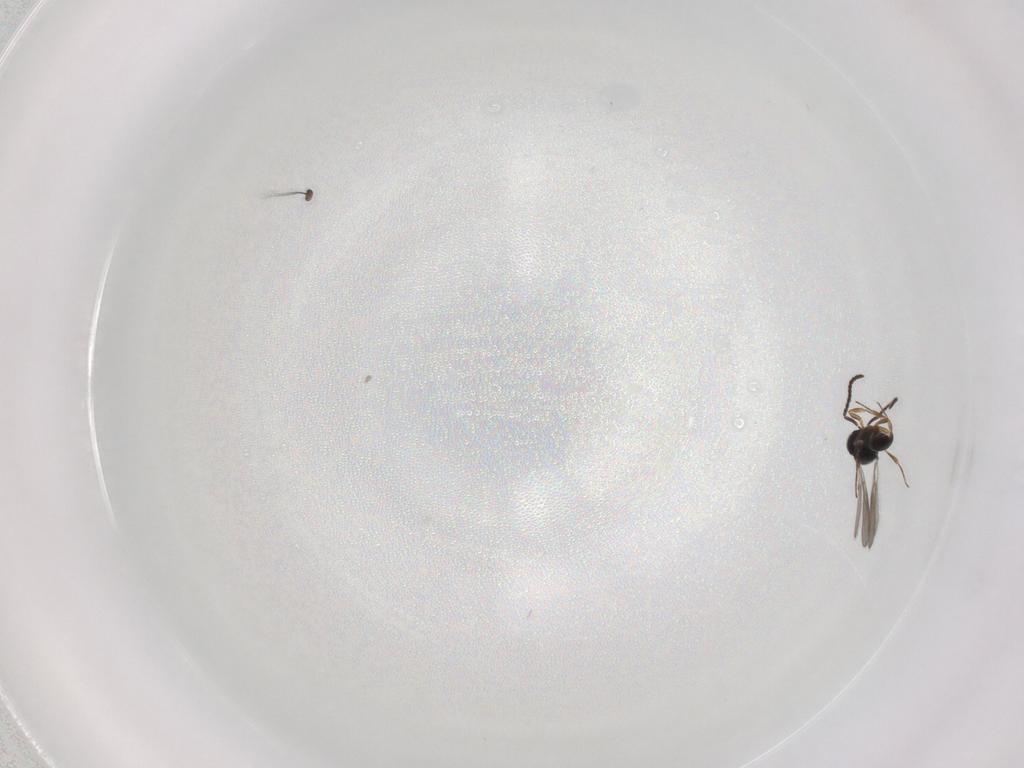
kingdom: Animalia
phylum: Arthropoda
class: Insecta
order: Hymenoptera
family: Scelionidae
